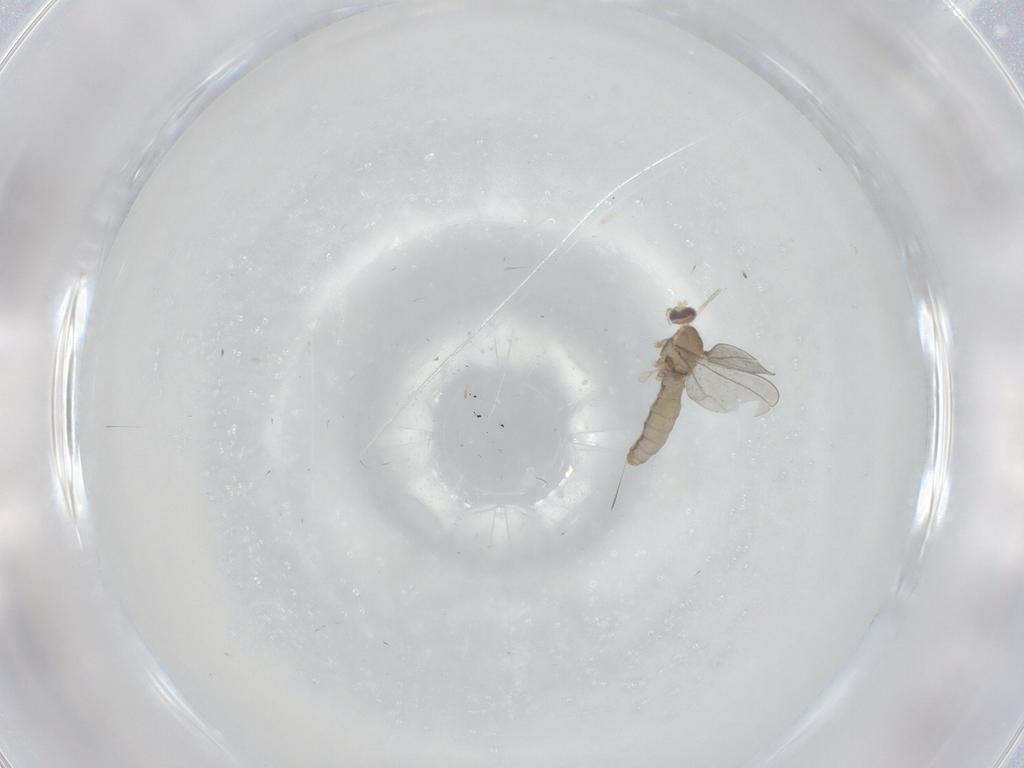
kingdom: Animalia
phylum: Arthropoda
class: Insecta
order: Diptera
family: Cecidomyiidae
